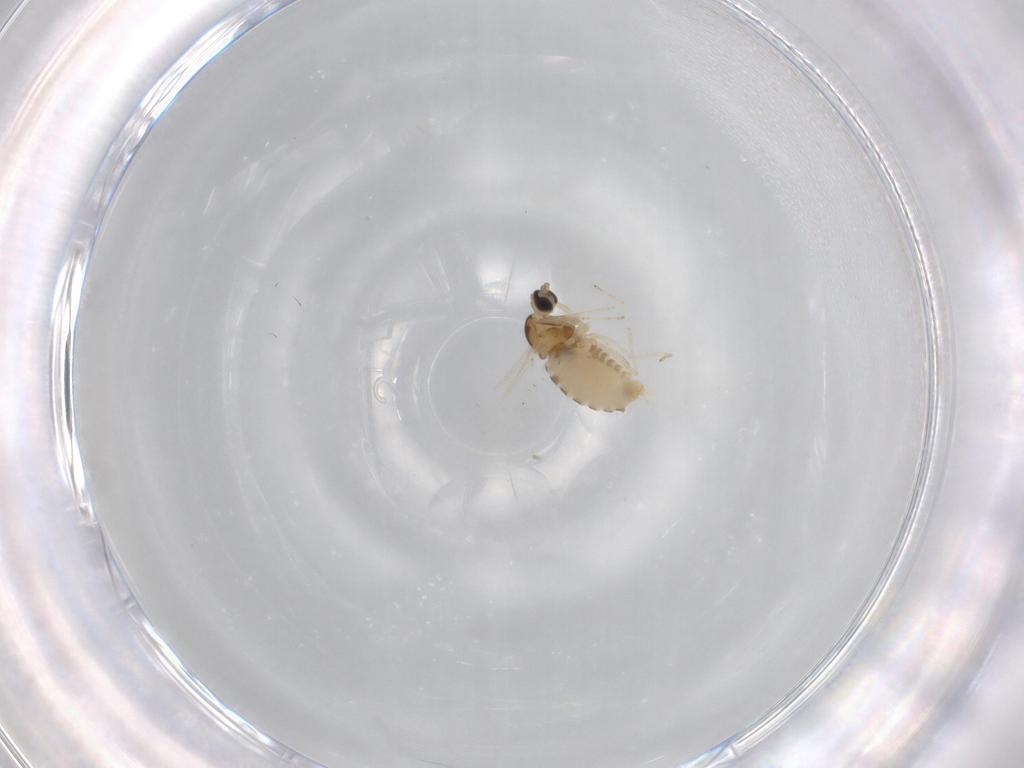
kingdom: Animalia
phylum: Arthropoda
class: Insecta
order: Diptera
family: Cecidomyiidae
